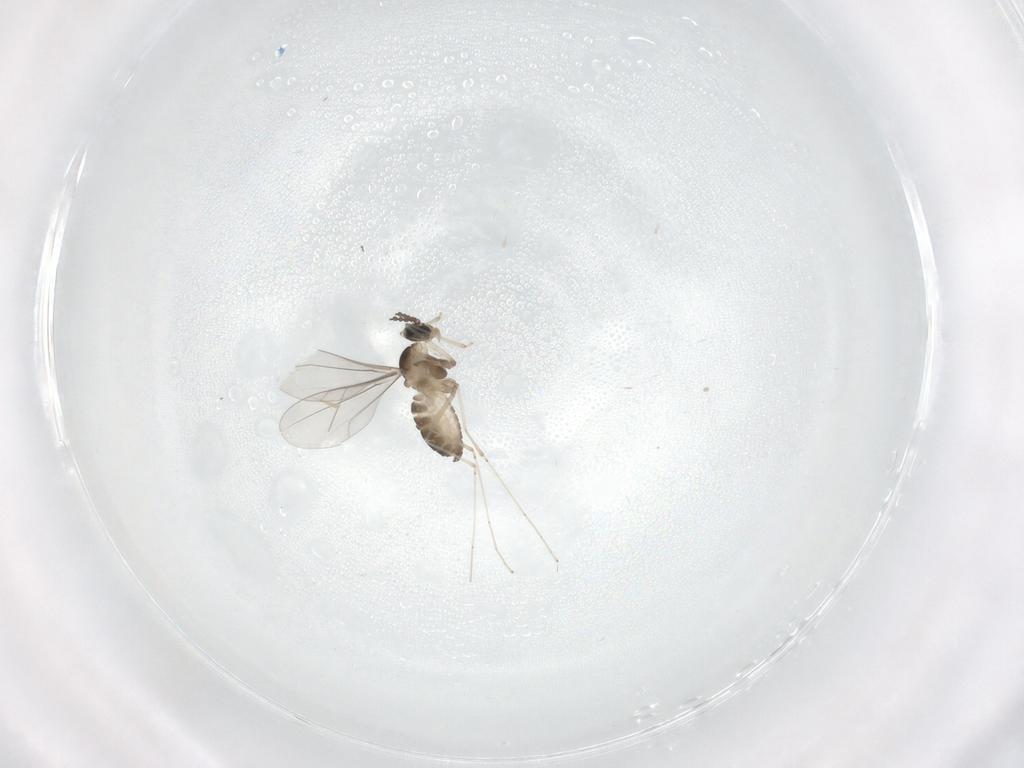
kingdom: Animalia
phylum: Arthropoda
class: Insecta
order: Diptera
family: Cecidomyiidae
